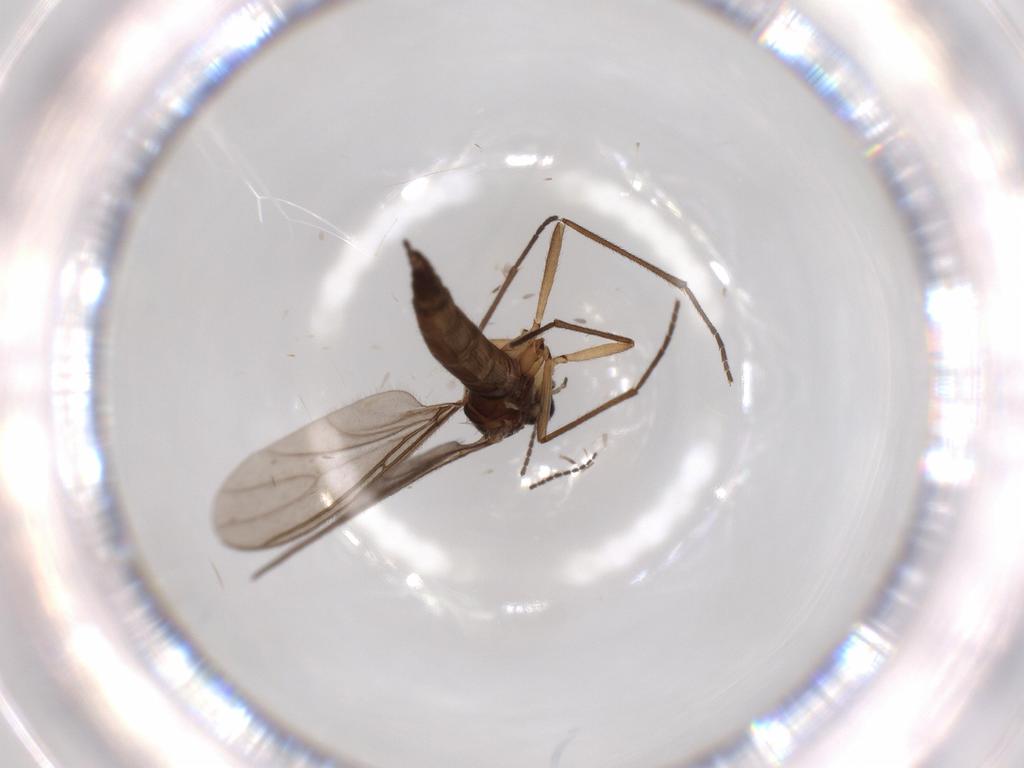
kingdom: Animalia
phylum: Arthropoda
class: Insecta
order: Diptera
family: Sciaridae
